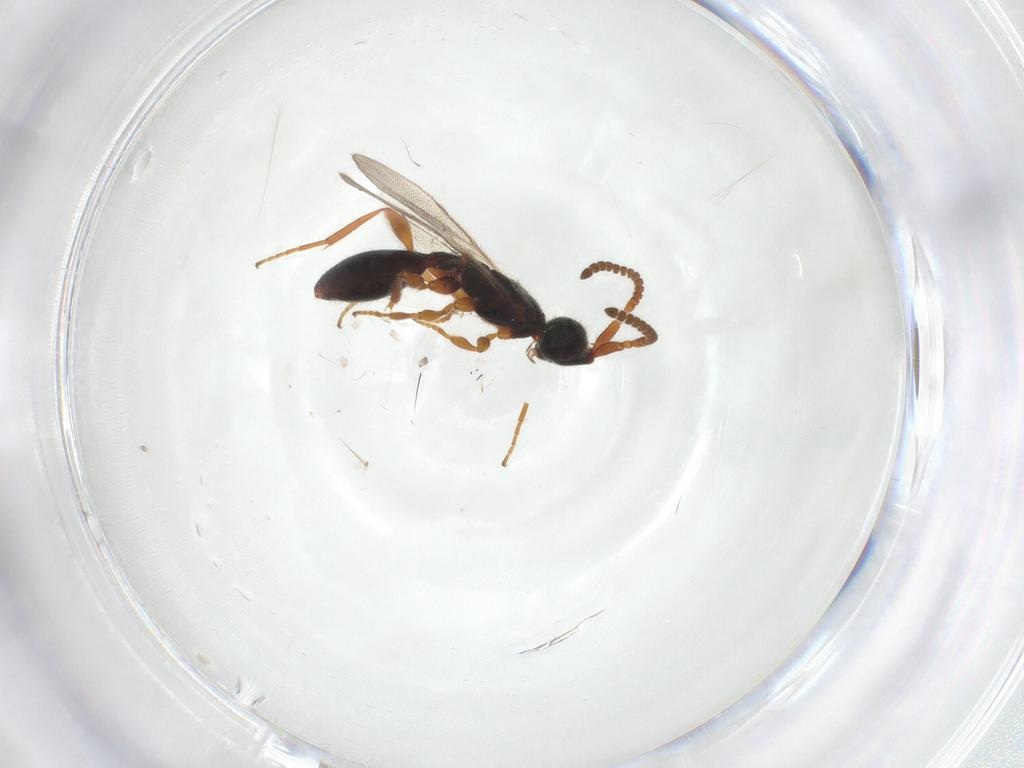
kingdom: Animalia
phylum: Arthropoda
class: Insecta
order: Hymenoptera
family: Diapriidae
